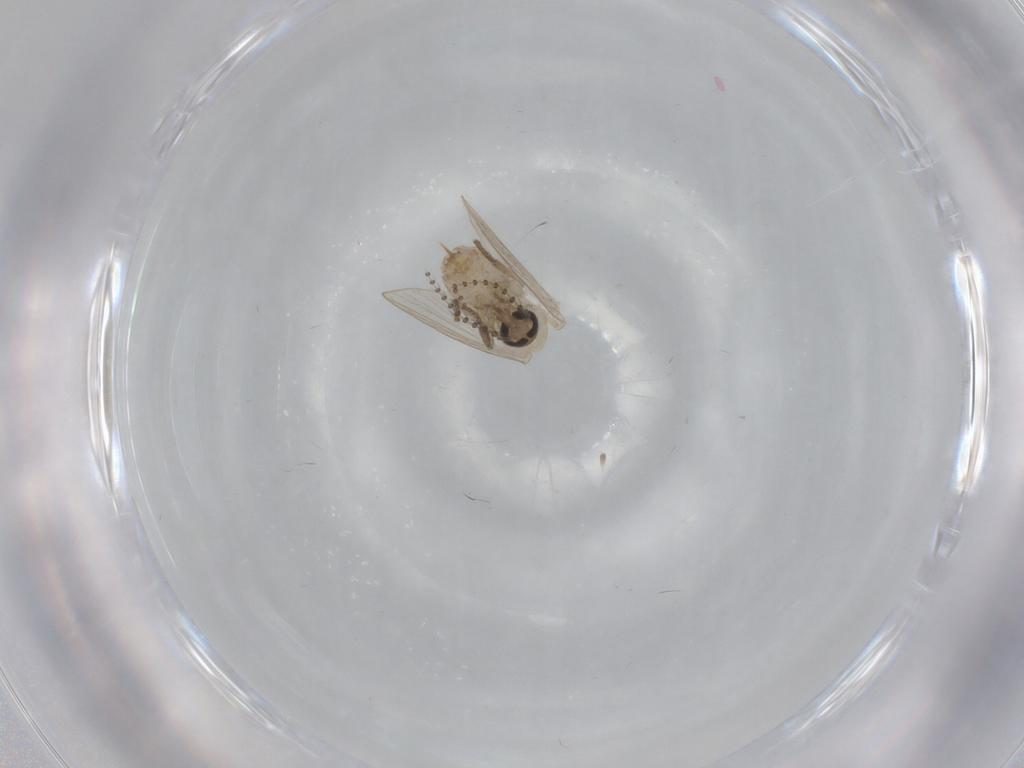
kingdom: Animalia
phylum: Arthropoda
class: Insecta
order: Diptera
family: Psychodidae
